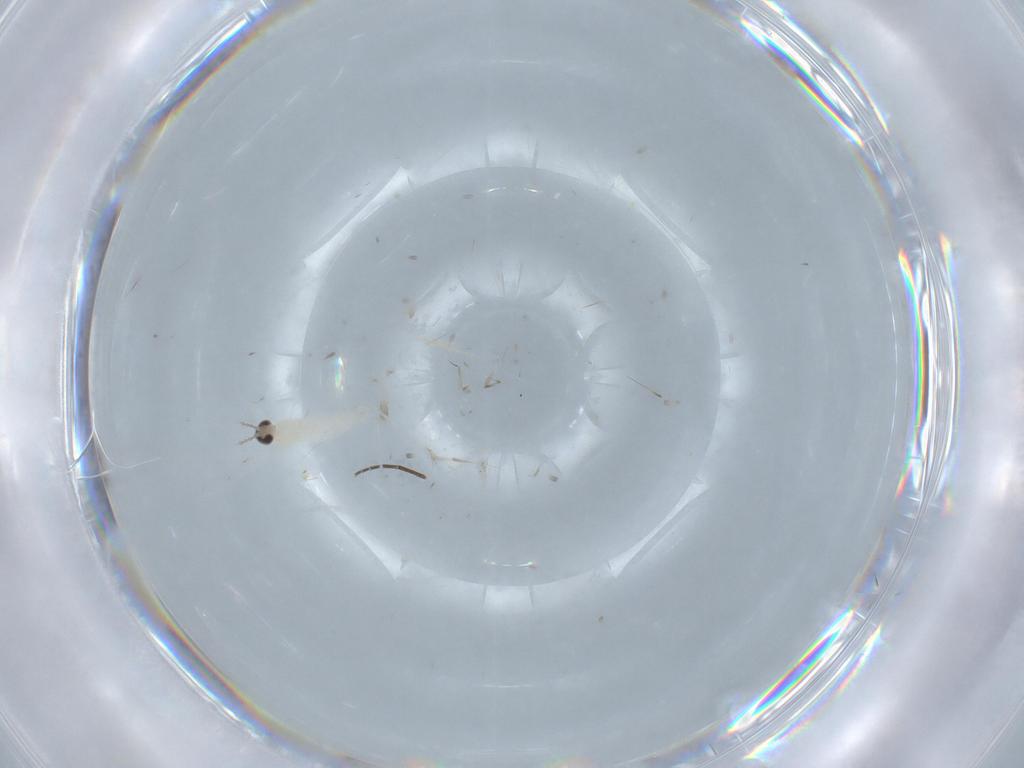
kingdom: Animalia
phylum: Arthropoda
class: Insecta
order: Diptera
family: Tachinidae
